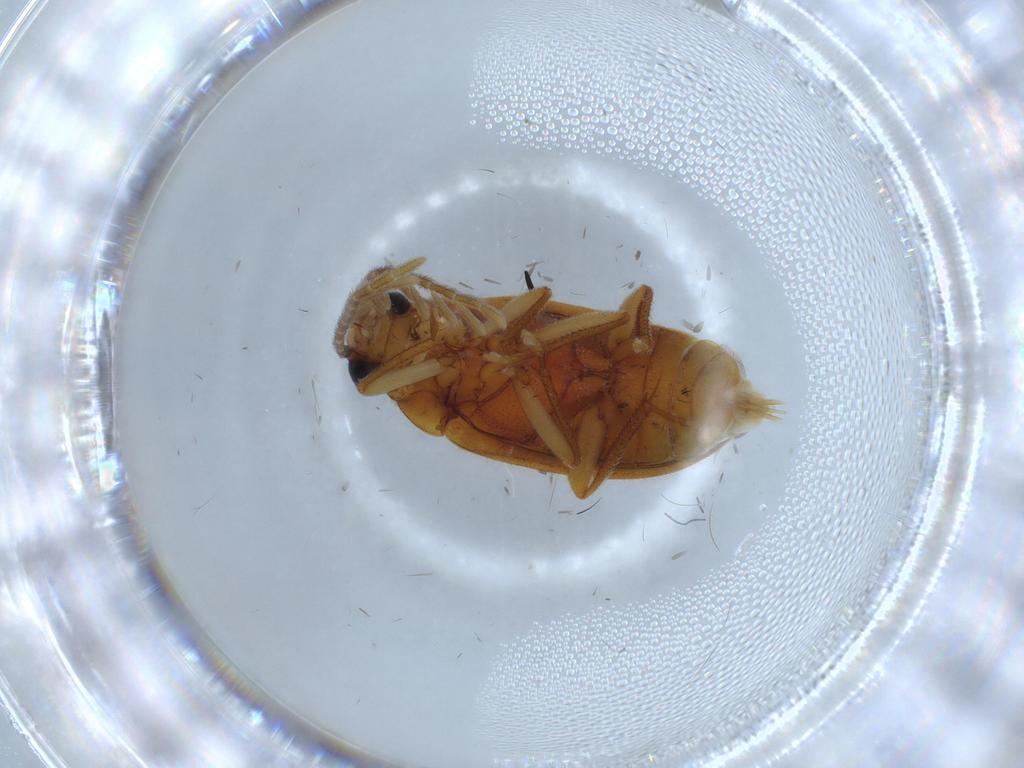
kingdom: Animalia
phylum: Arthropoda
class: Insecta
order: Coleoptera
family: Ptilodactylidae
